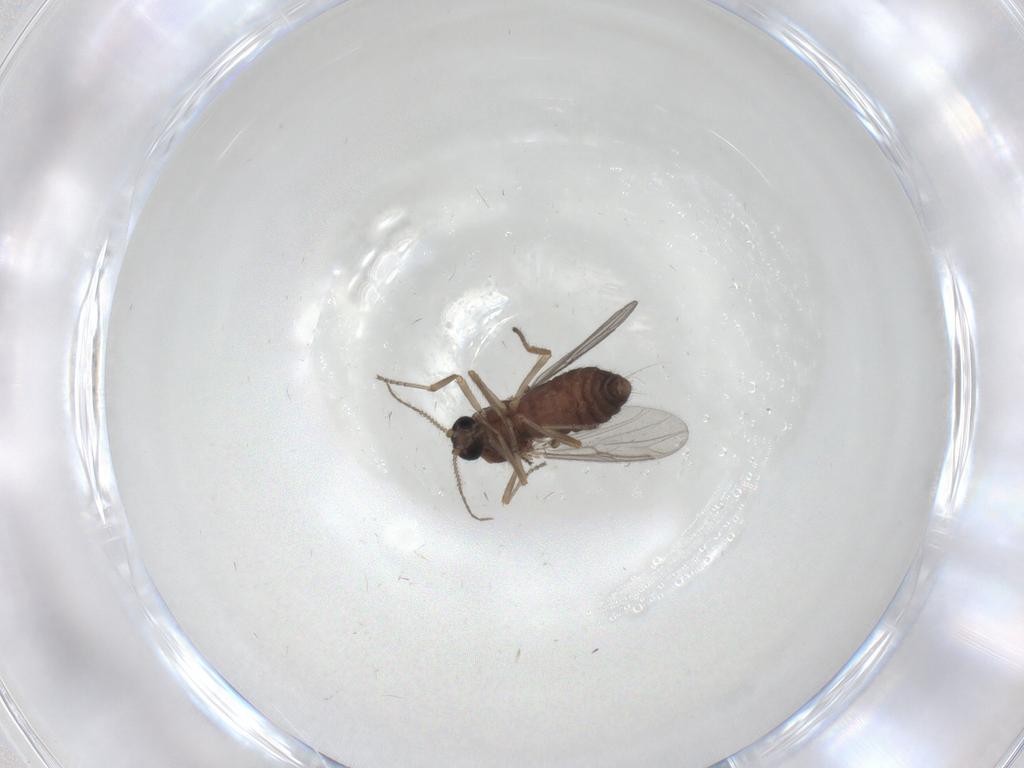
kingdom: Animalia
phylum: Arthropoda
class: Insecta
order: Diptera
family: Ceratopogonidae
